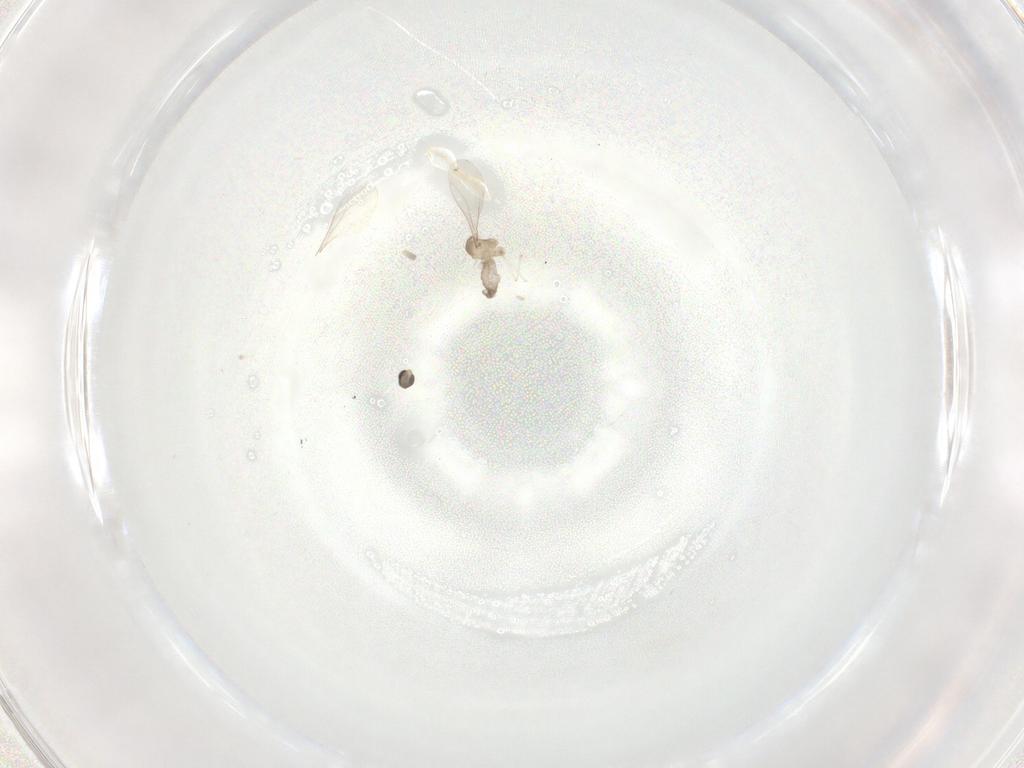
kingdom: Animalia
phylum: Arthropoda
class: Insecta
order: Diptera
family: Cecidomyiidae
